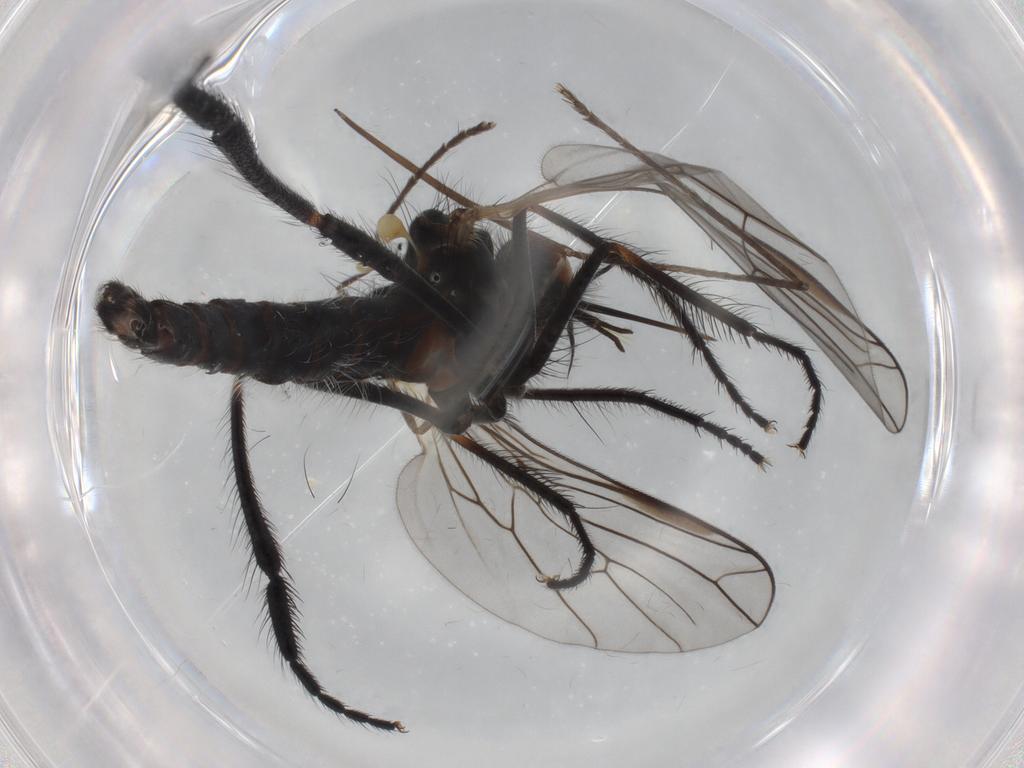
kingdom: Animalia
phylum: Arthropoda
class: Insecta
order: Diptera
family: Empididae
